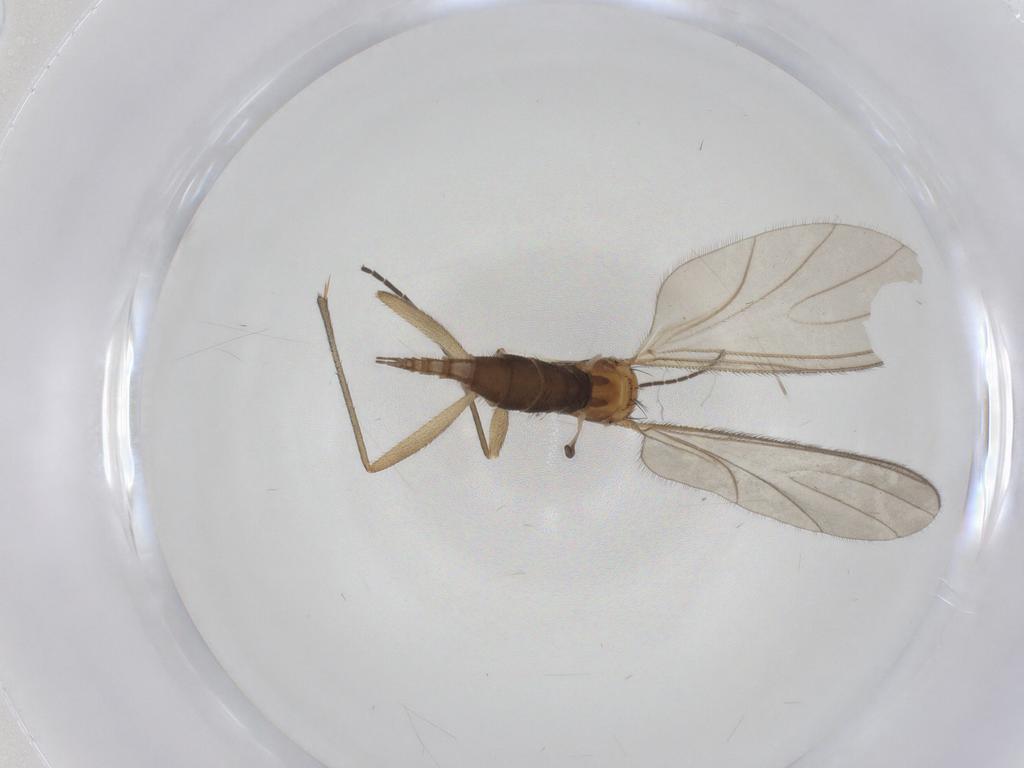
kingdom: Animalia
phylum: Arthropoda
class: Insecta
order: Diptera
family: Sciaridae
